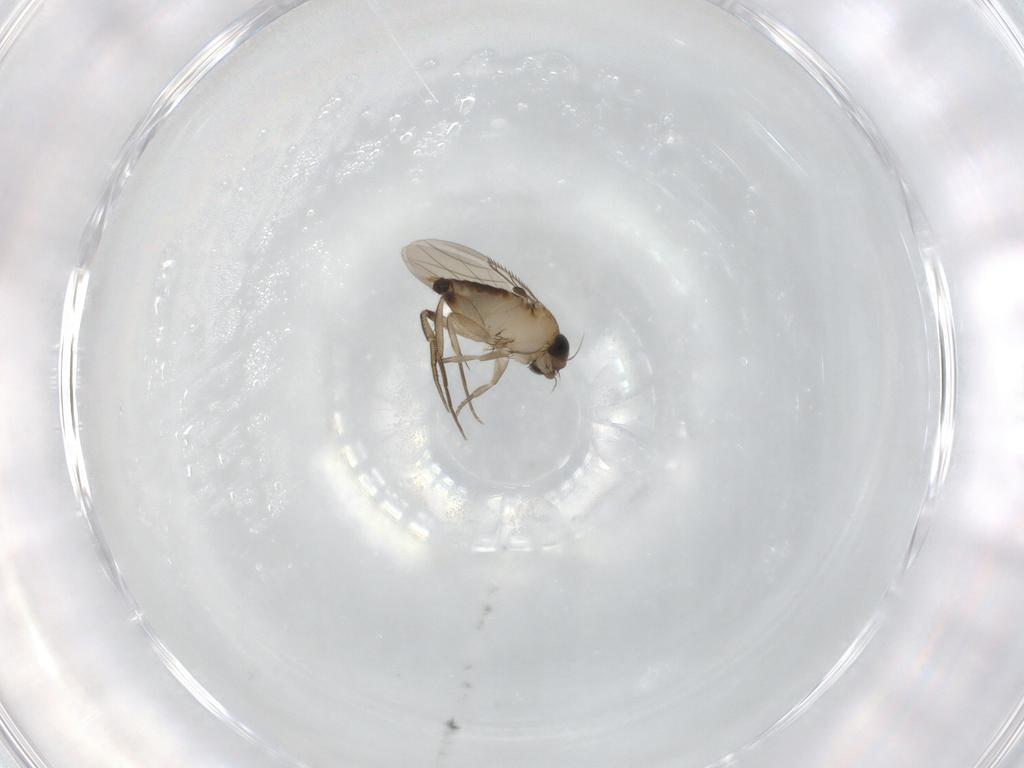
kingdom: Animalia
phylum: Arthropoda
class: Insecta
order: Diptera
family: Phoridae
